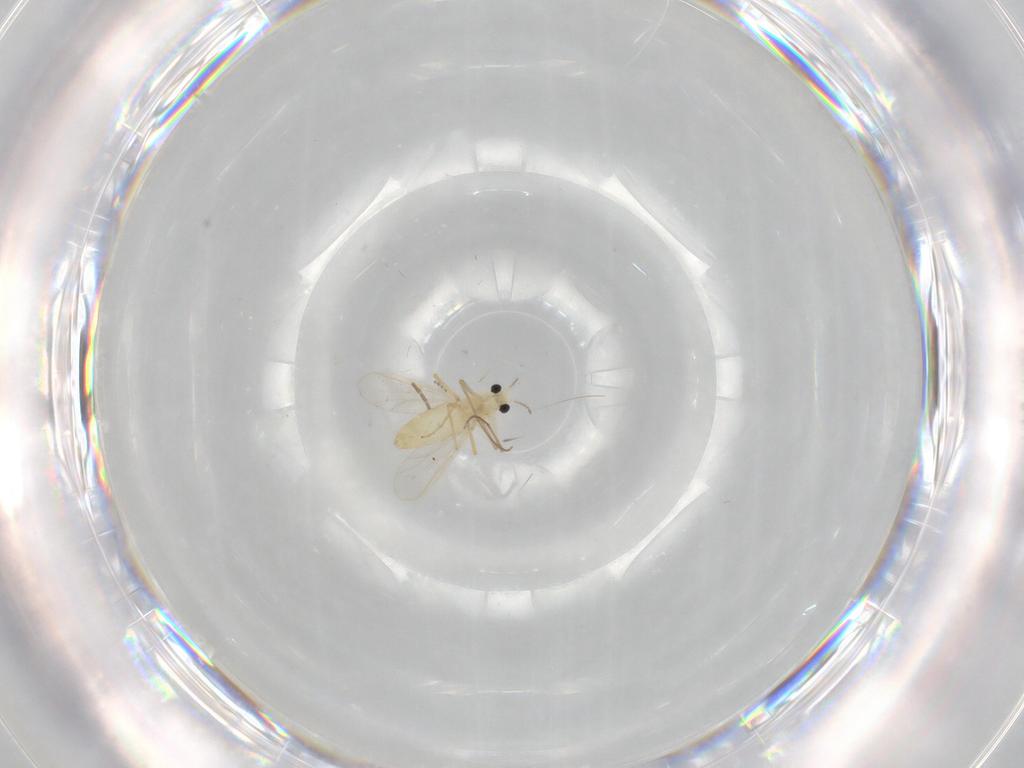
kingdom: Animalia
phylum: Arthropoda
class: Insecta
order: Diptera
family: Chironomidae
